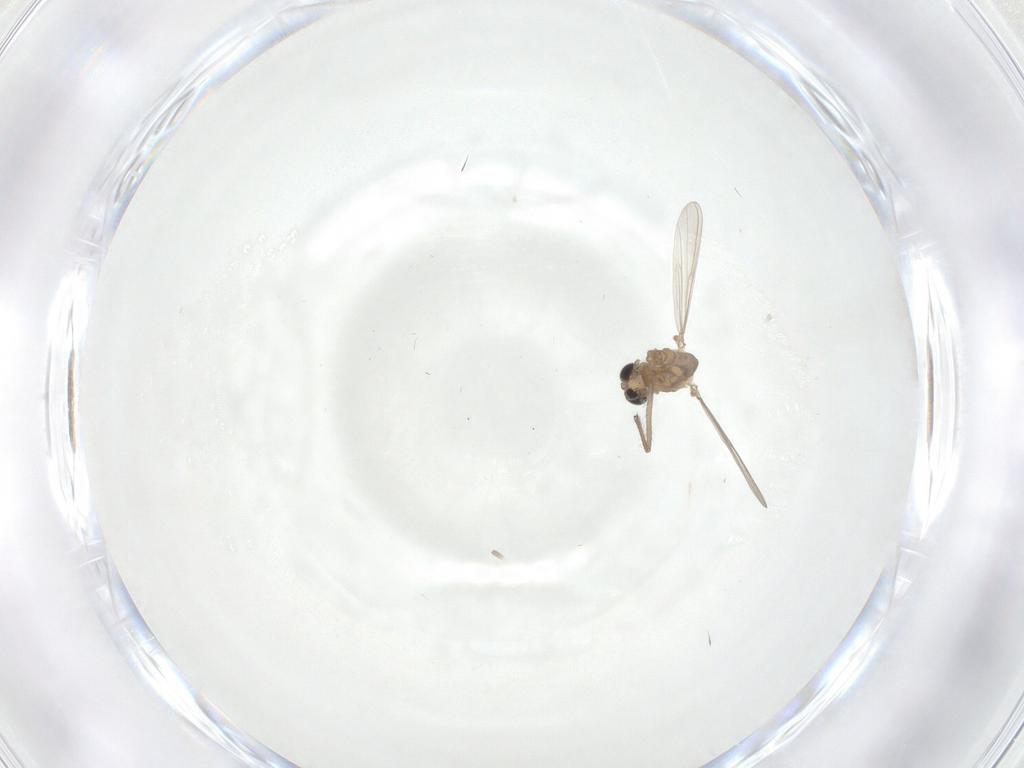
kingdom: Animalia
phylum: Arthropoda
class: Insecta
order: Diptera
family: Chironomidae
